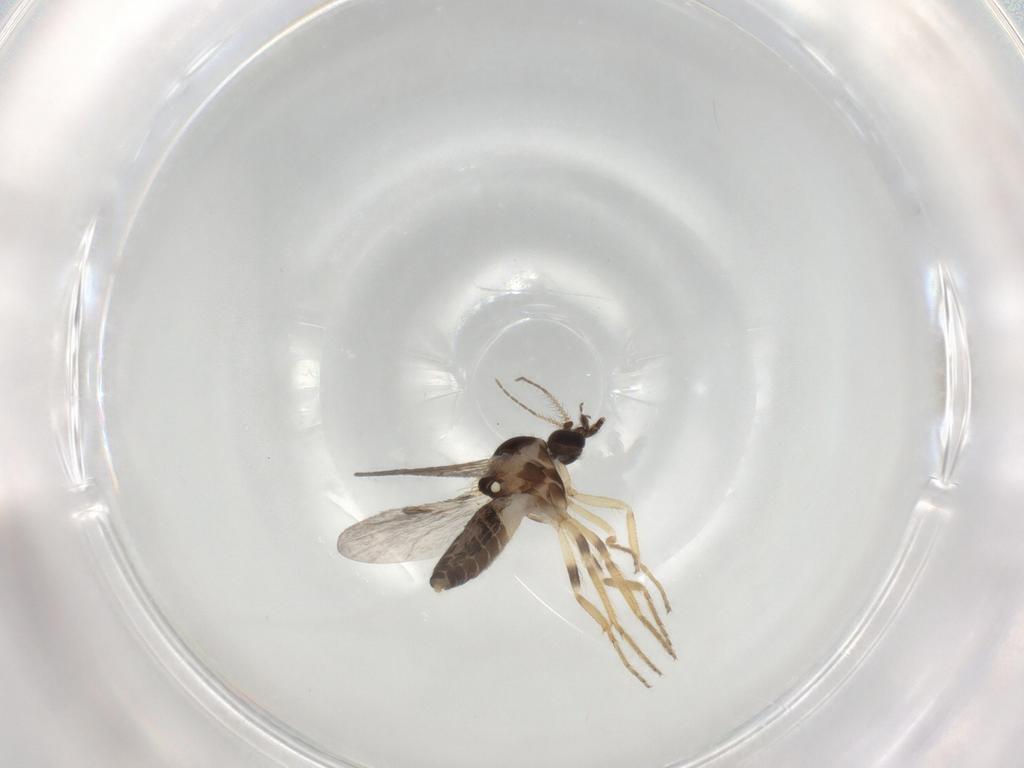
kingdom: Animalia
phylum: Arthropoda
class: Insecta
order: Diptera
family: Ceratopogonidae
